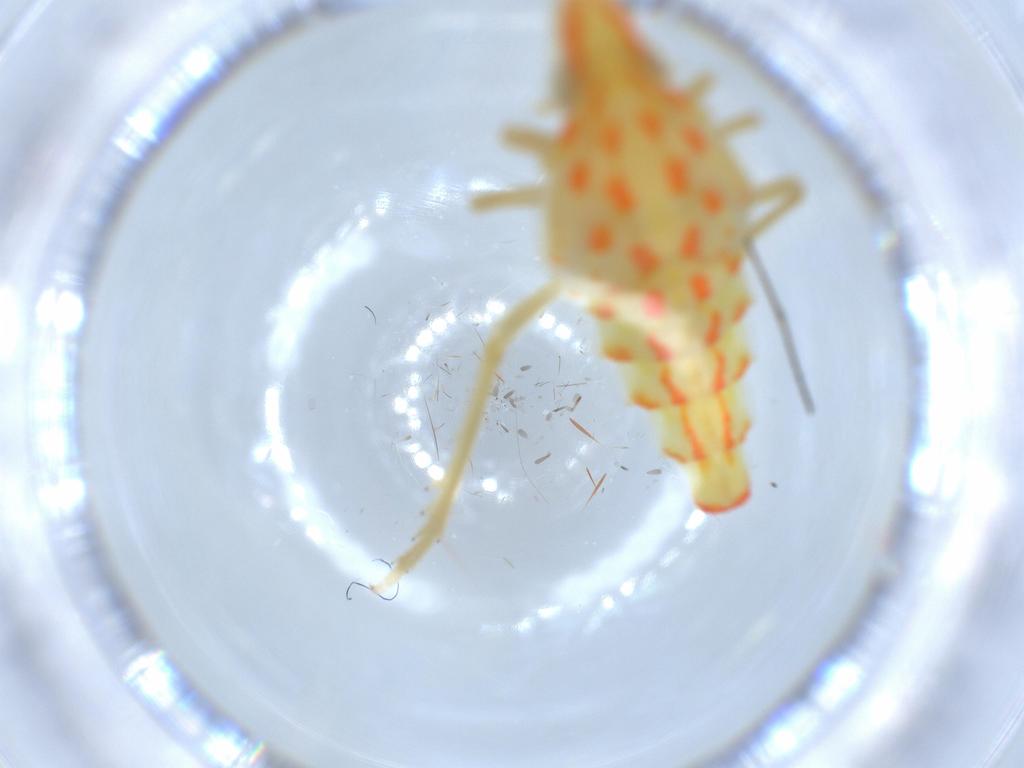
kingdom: Animalia
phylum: Arthropoda
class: Insecta
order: Hemiptera
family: Tropiduchidae
